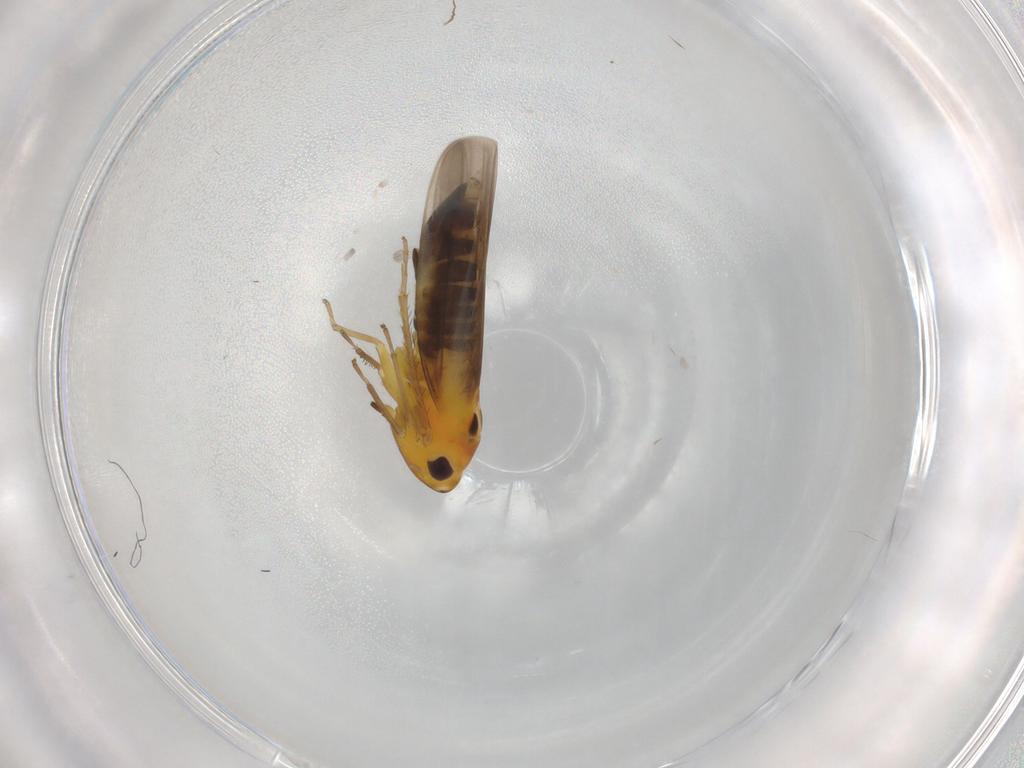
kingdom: Animalia
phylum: Arthropoda
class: Insecta
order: Hemiptera
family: Cicadellidae
